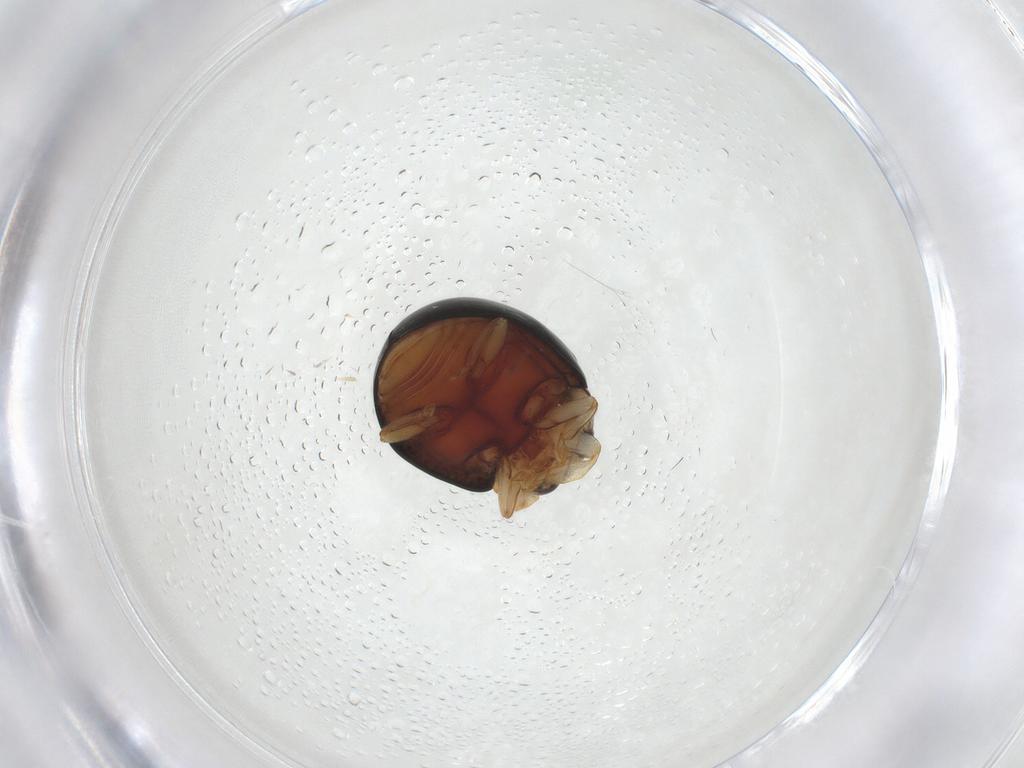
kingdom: Animalia
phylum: Arthropoda
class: Insecta
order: Coleoptera
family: Coccinellidae
